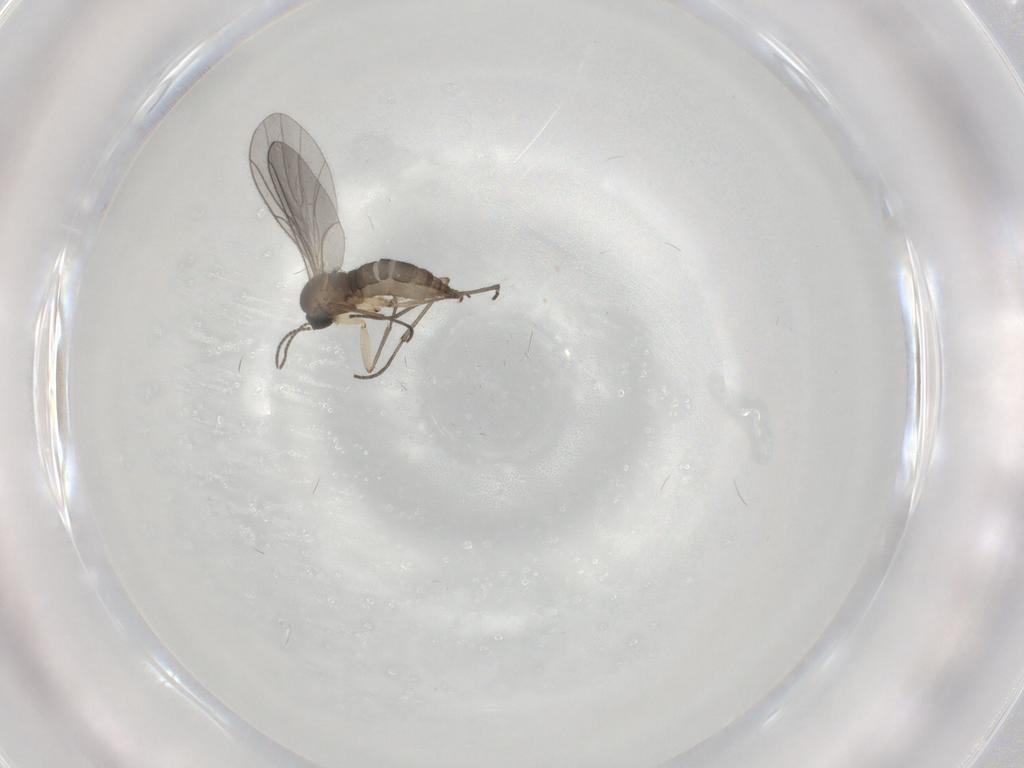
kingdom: Animalia
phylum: Arthropoda
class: Insecta
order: Diptera
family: Sciaridae
